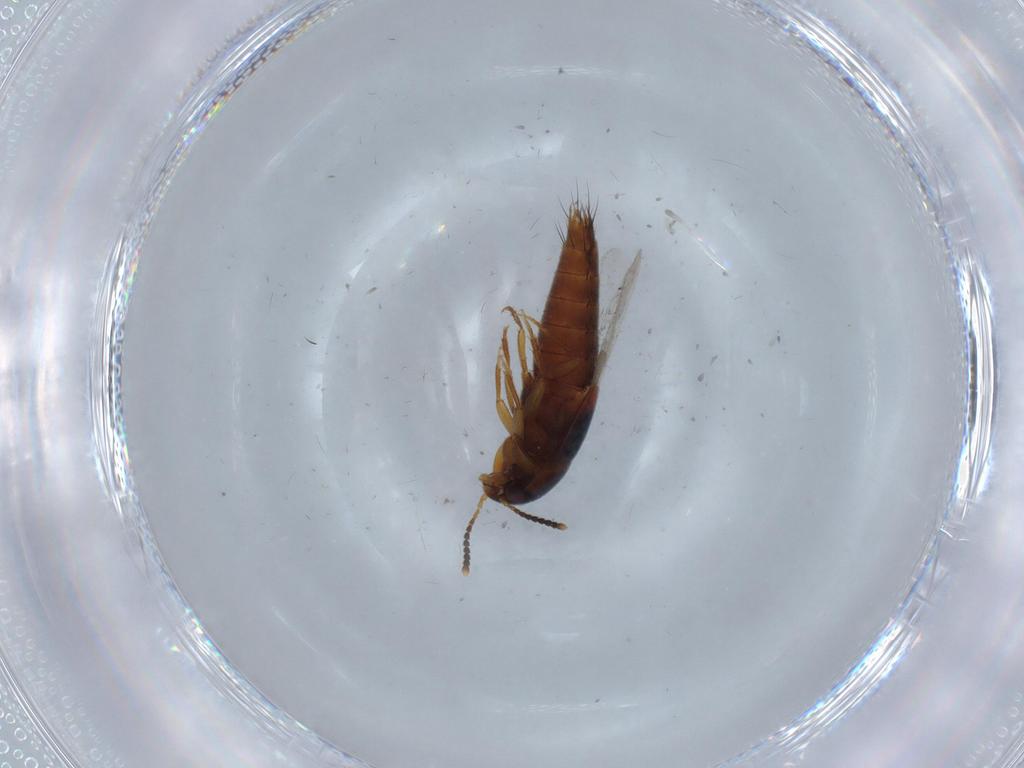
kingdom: Animalia
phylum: Arthropoda
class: Insecta
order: Coleoptera
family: Staphylinidae
